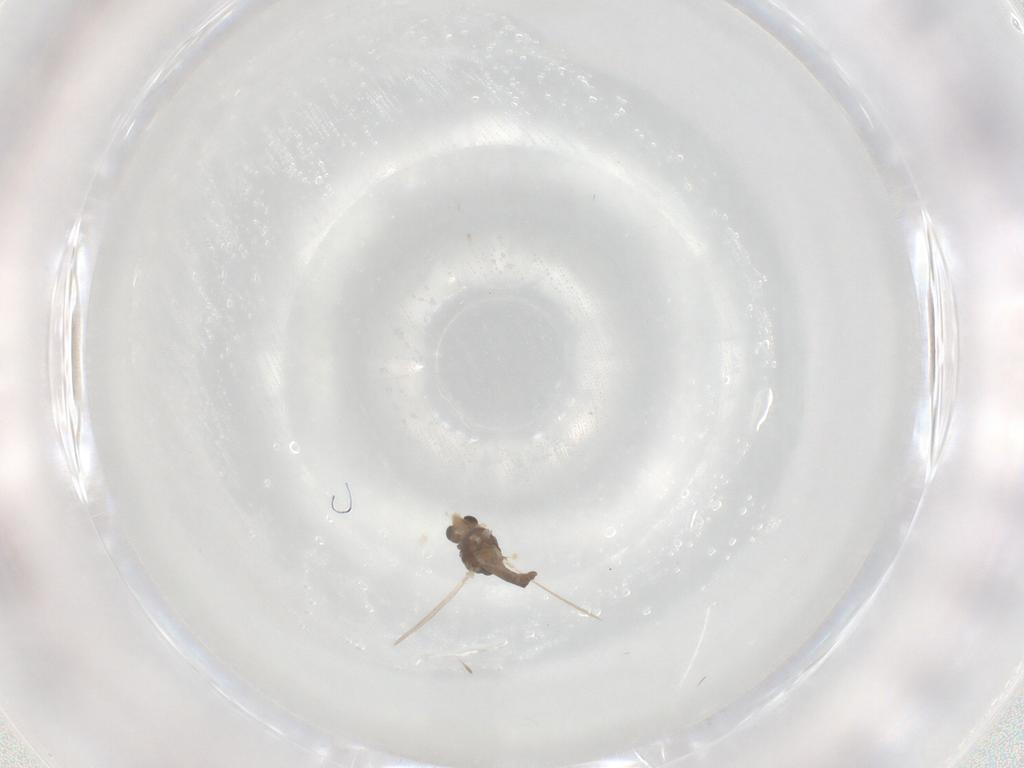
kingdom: Animalia
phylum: Arthropoda
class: Insecta
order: Diptera
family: Chironomidae
